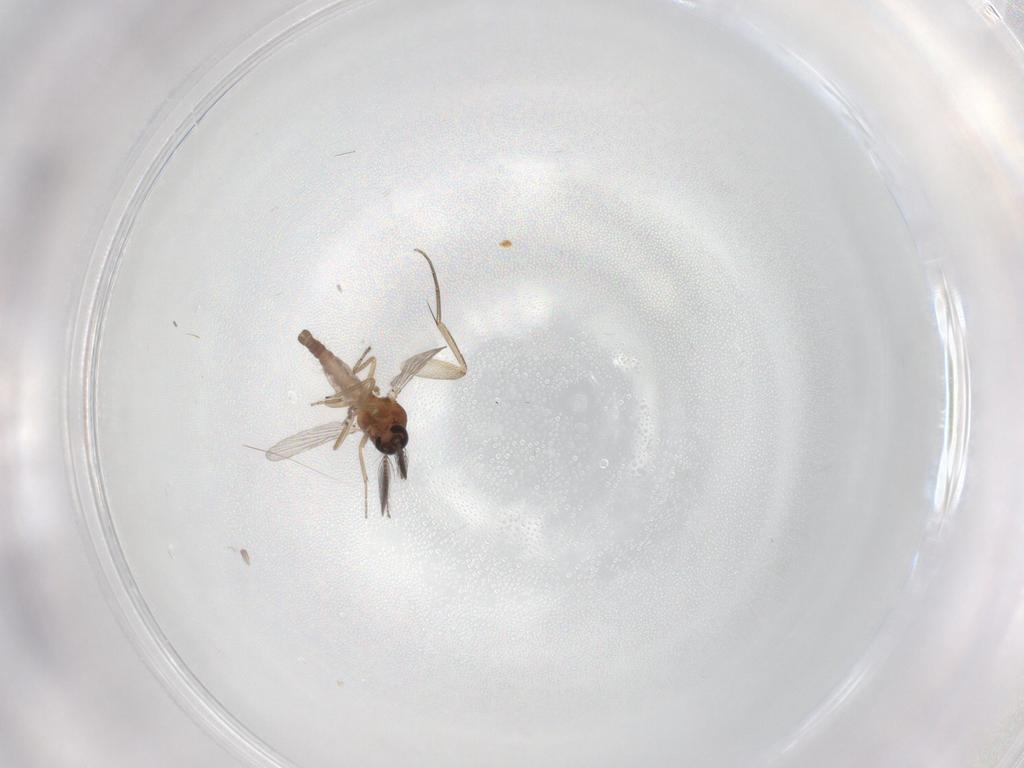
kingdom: Animalia
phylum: Arthropoda
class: Insecta
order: Diptera
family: Ceratopogonidae
